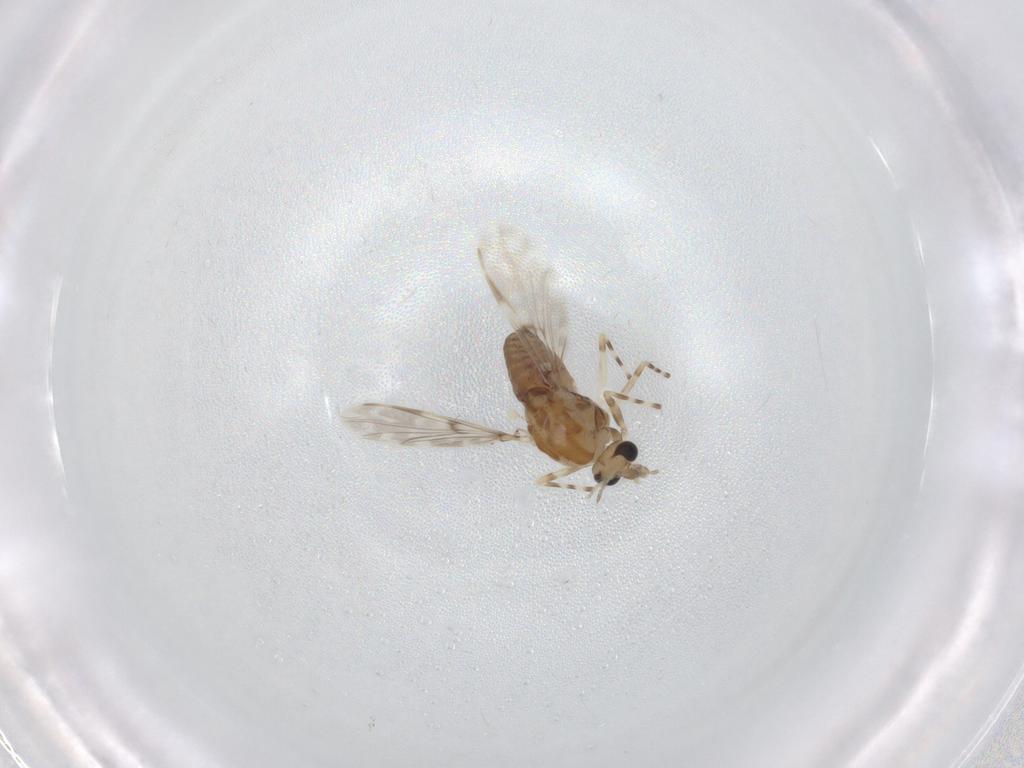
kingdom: Animalia
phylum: Arthropoda
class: Insecta
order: Diptera
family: Chironomidae
